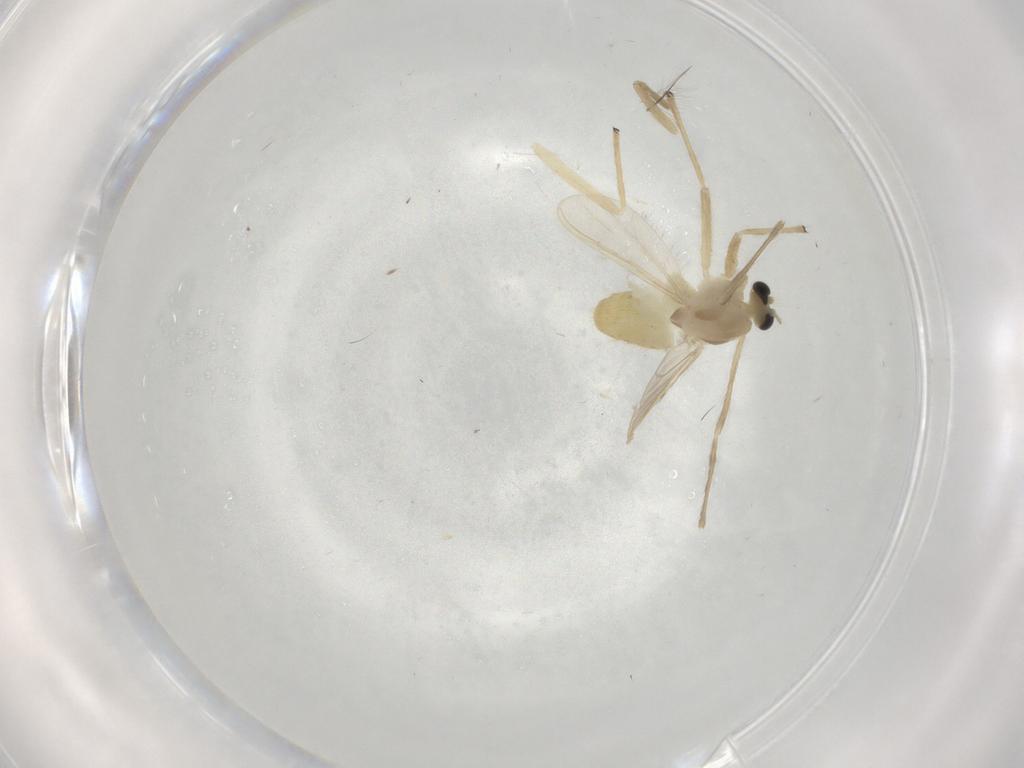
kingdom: Animalia
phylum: Arthropoda
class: Insecta
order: Diptera
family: Chironomidae
